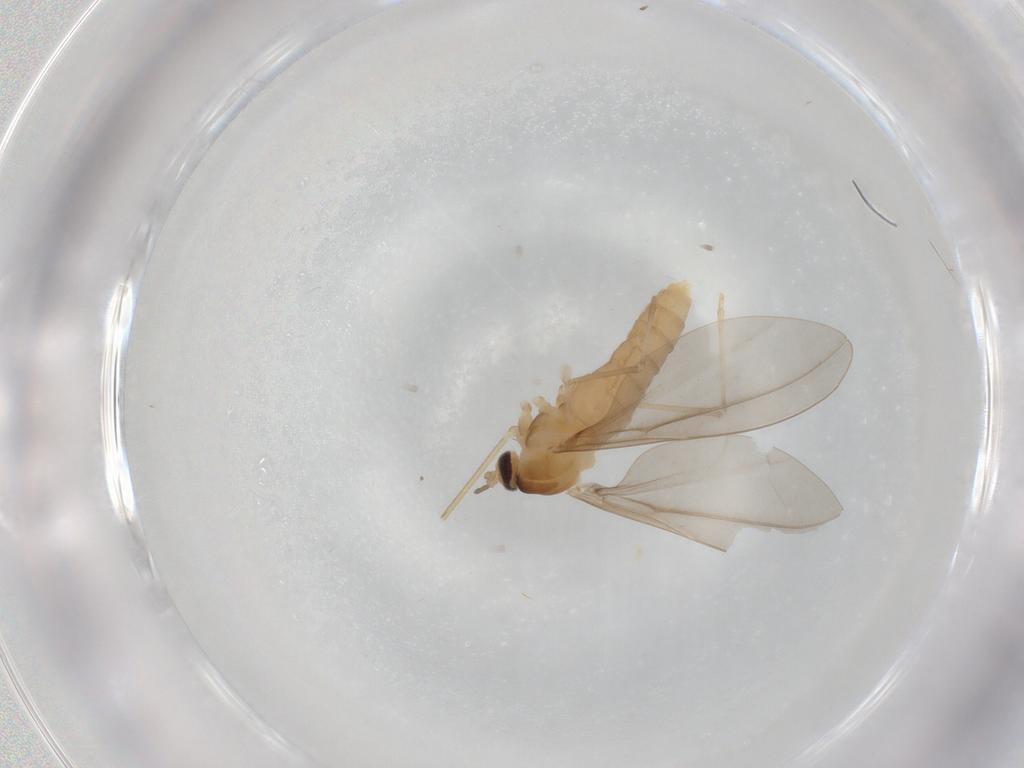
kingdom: Animalia
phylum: Arthropoda
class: Insecta
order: Diptera
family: Cecidomyiidae
